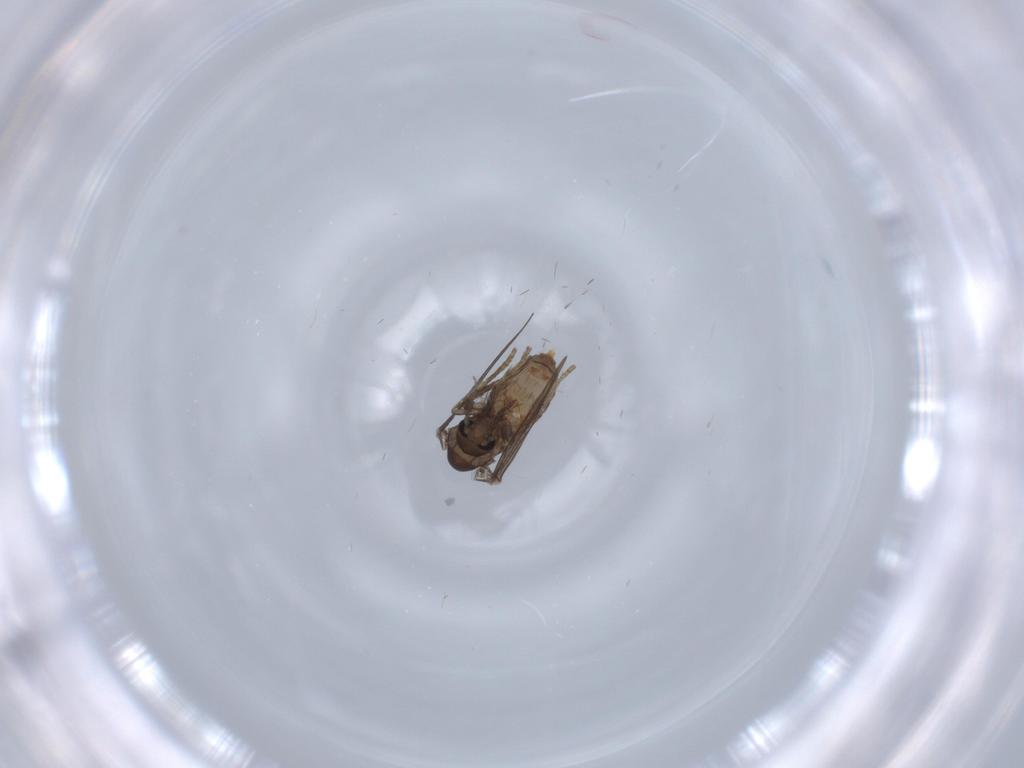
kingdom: Animalia
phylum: Arthropoda
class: Insecta
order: Diptera
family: Psychodidae
